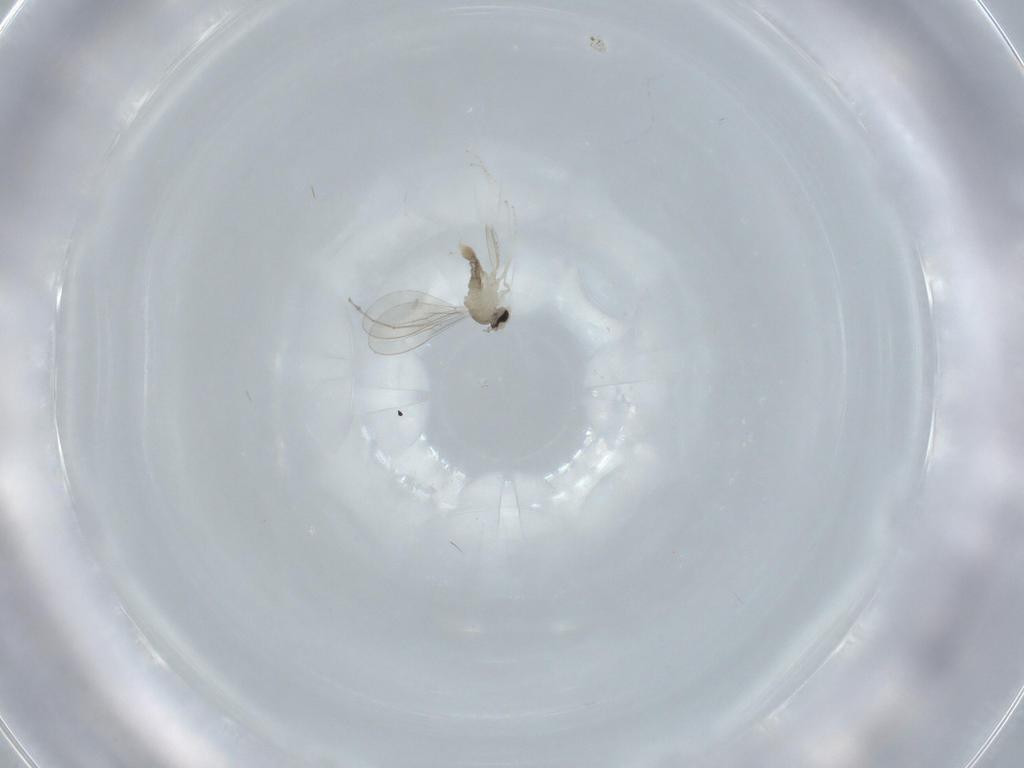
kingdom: Animalia
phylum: Arthropoda
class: Insecta
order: Diptera
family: Cecidomyiidae
